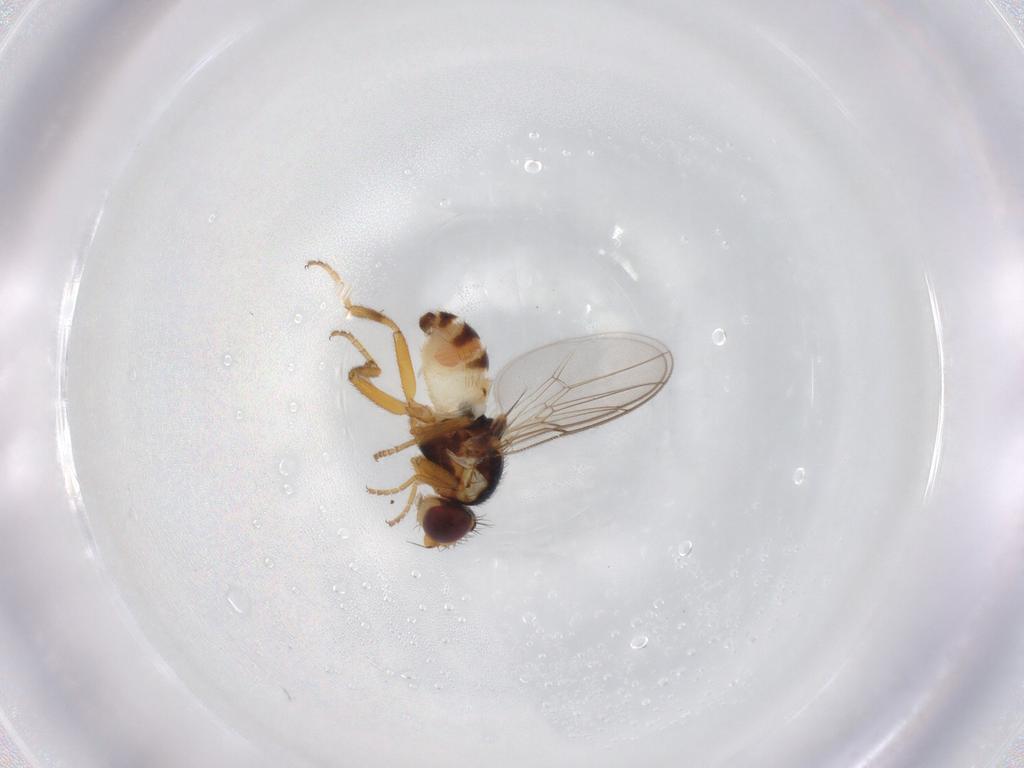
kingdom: Animalia
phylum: Arthropoda
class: Insecta
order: Diptera
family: Chloropidae
